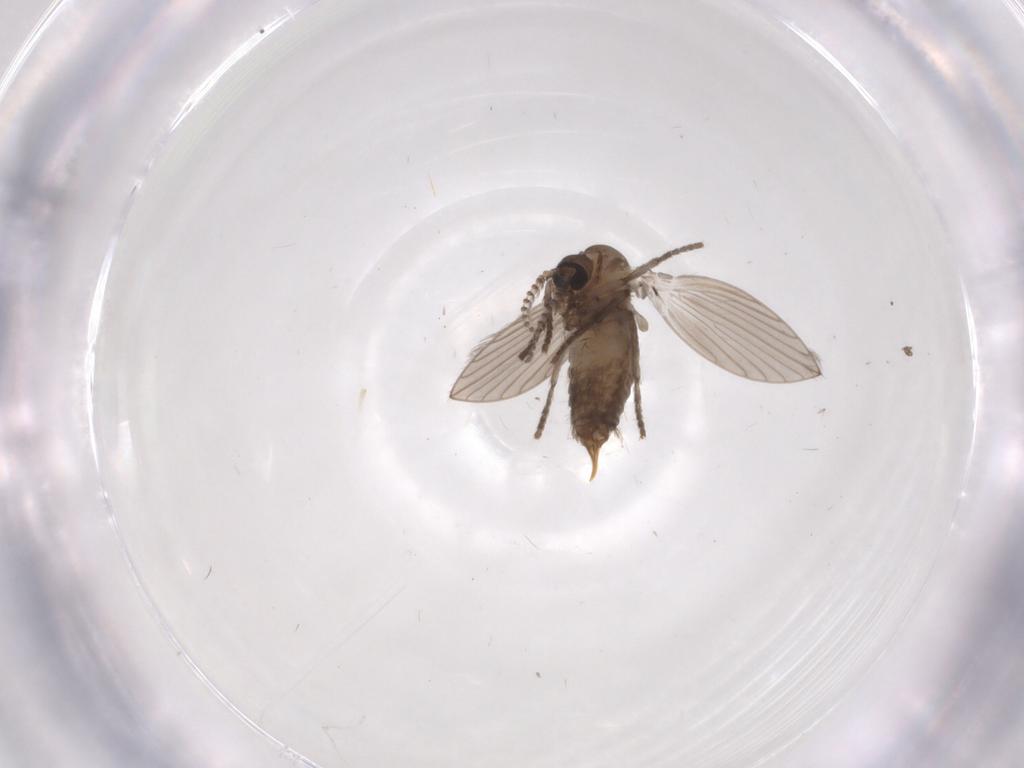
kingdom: Animalia
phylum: Arthropoda
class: Insecta
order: Diptera
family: Psychodidae
